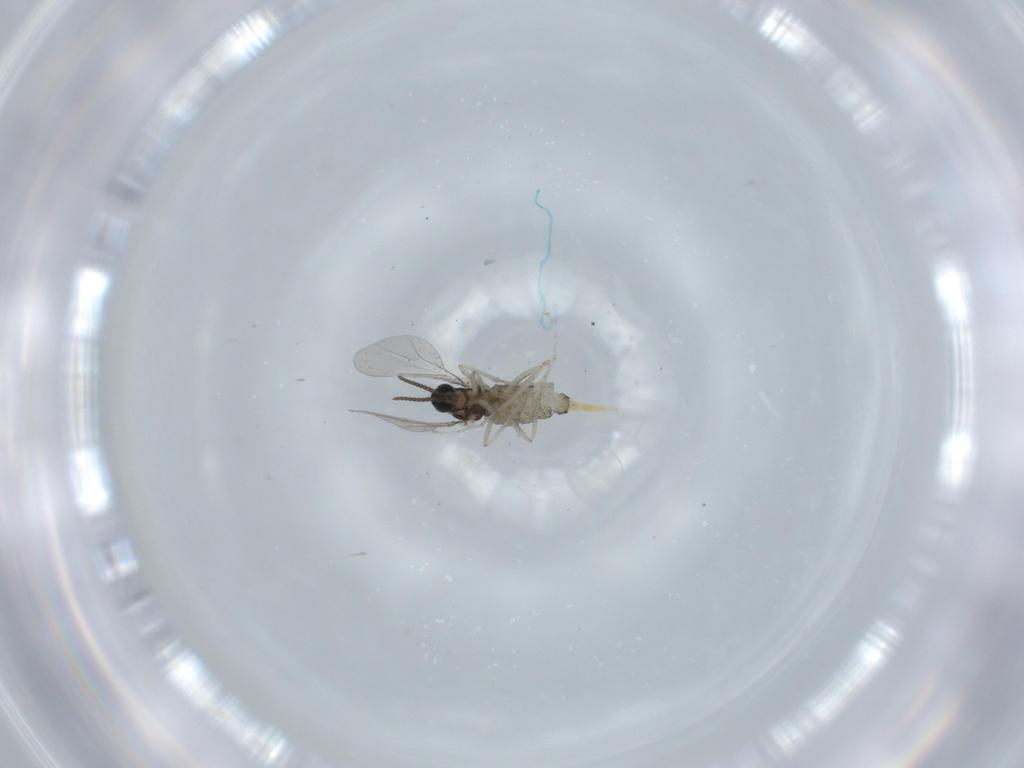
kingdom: Animalia
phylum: Arthropoda
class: Insecta
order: Diptera
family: Cecidomyiidae
